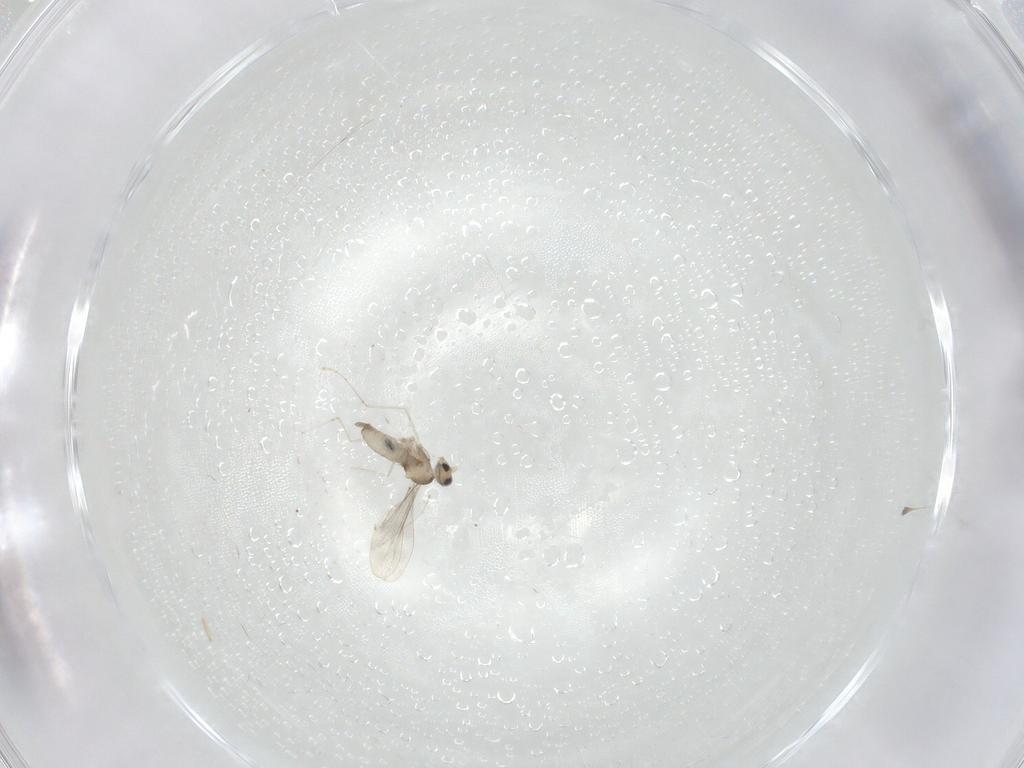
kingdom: Animalia
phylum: Arthropoda
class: Insecta
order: Diptera
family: Cecidomyiidae
